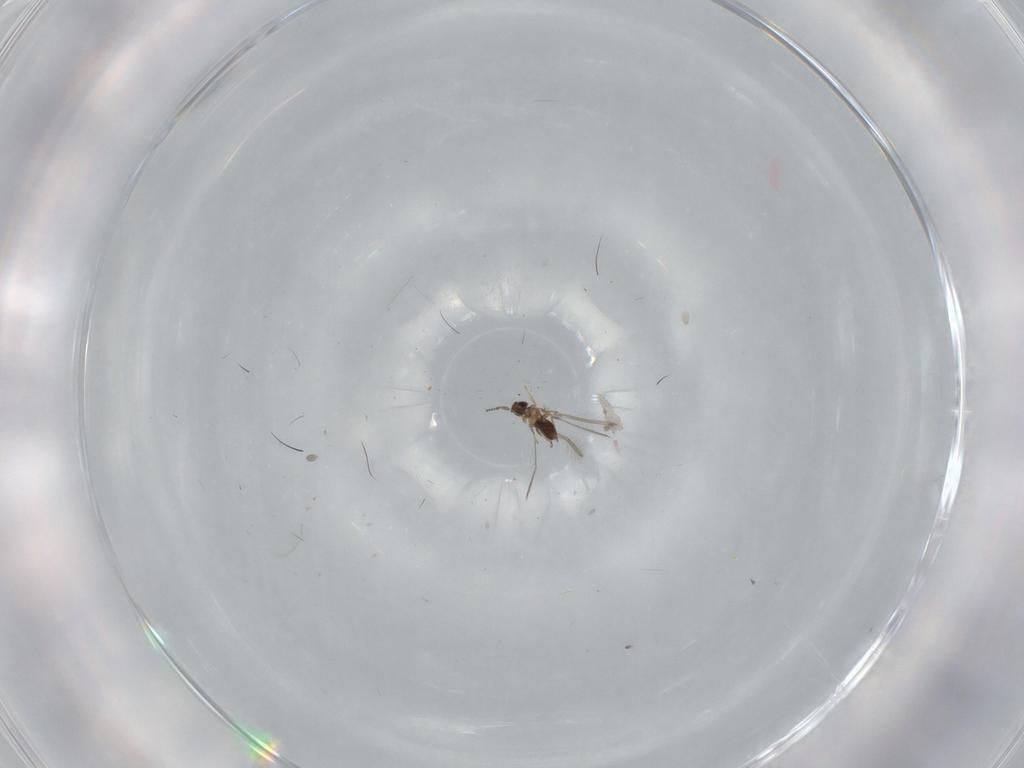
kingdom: Animalia
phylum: Arthropoda
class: Insecta
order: Hymenoptera
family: Mymaridae
